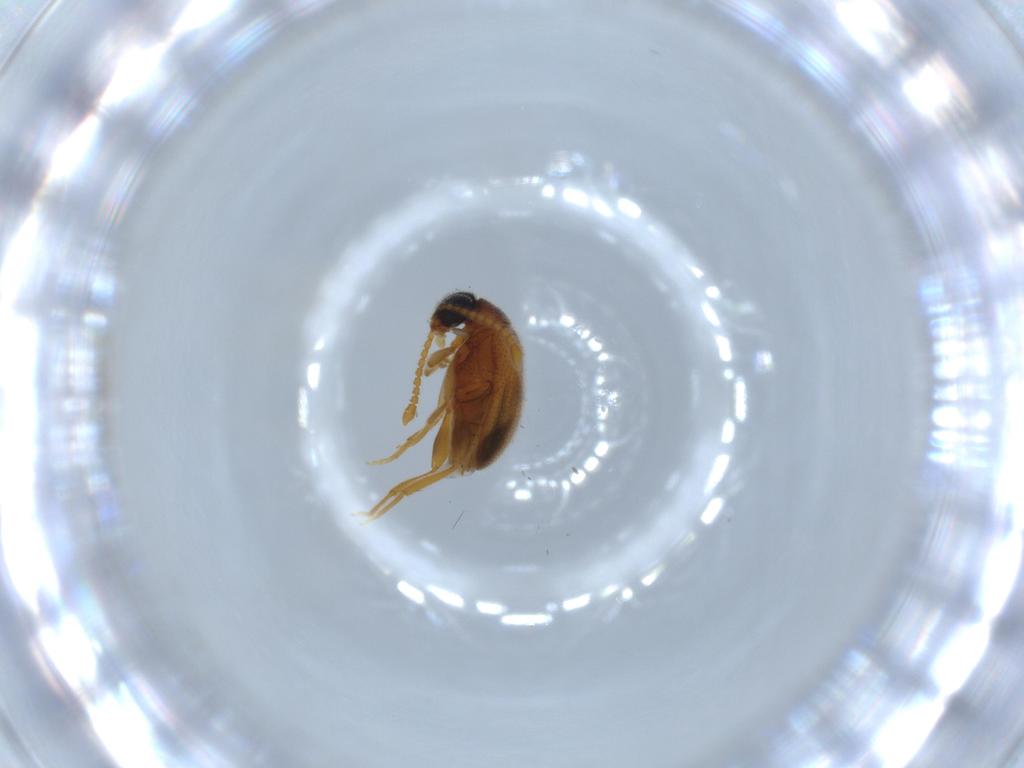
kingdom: Animalia
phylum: Arthropoda
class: Insecta
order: Coleoptera
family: Aderidae
